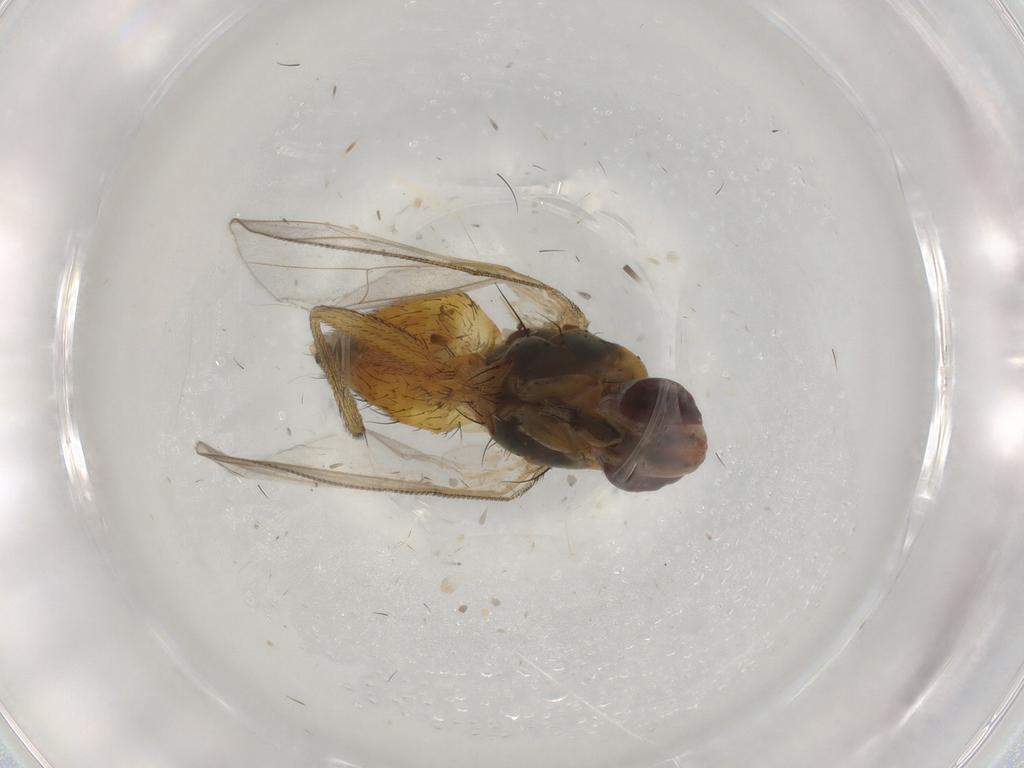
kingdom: Animalia
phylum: Arthropoda
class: Insecta
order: Diptera
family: Muscidae
